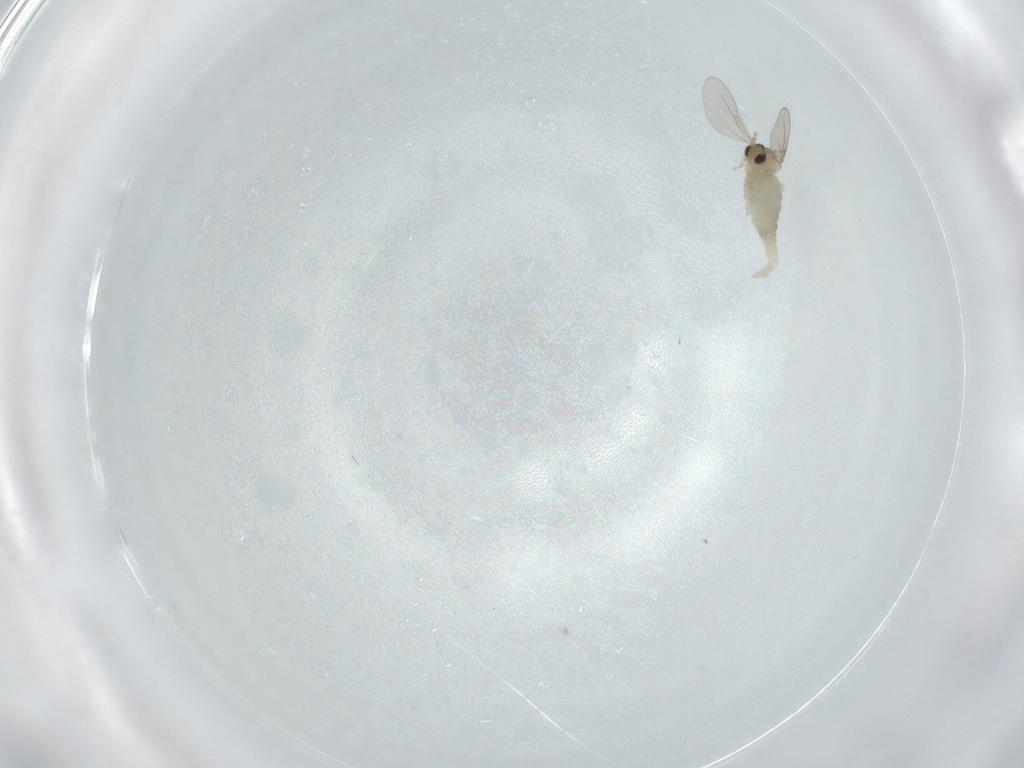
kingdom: Animalia
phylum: Arthropoda
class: Insecta
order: Diptera
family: Cecidomyiidae
